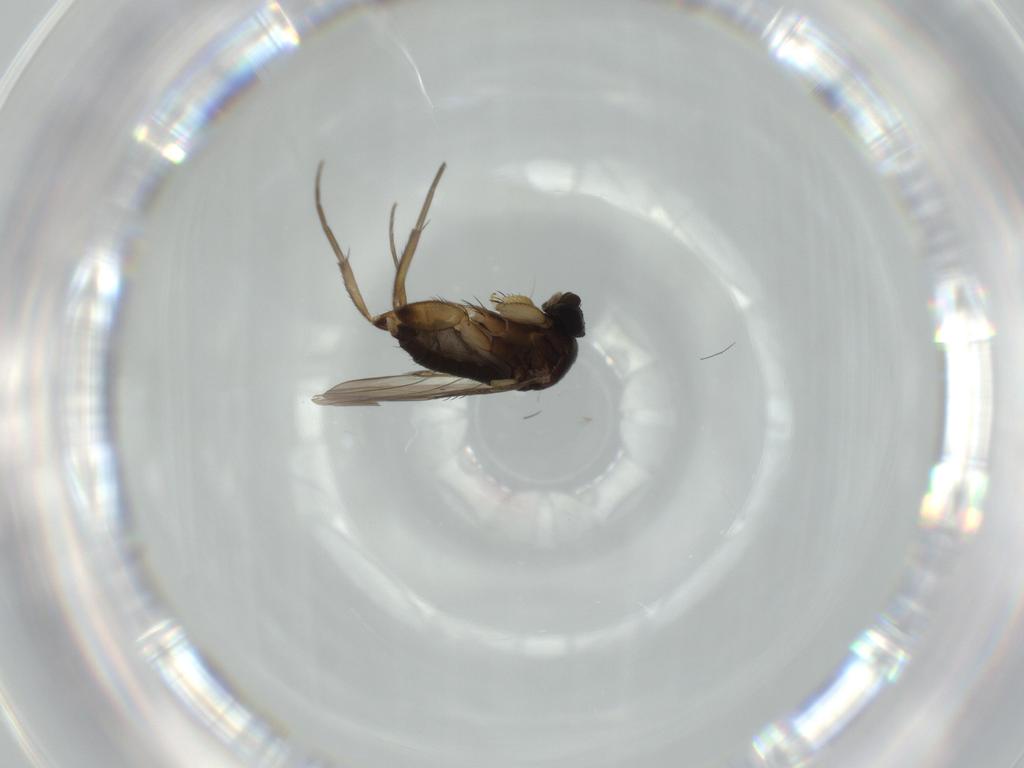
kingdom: Animalia
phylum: Arthropoda
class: Insecta
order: Diptera
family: Phoridae
